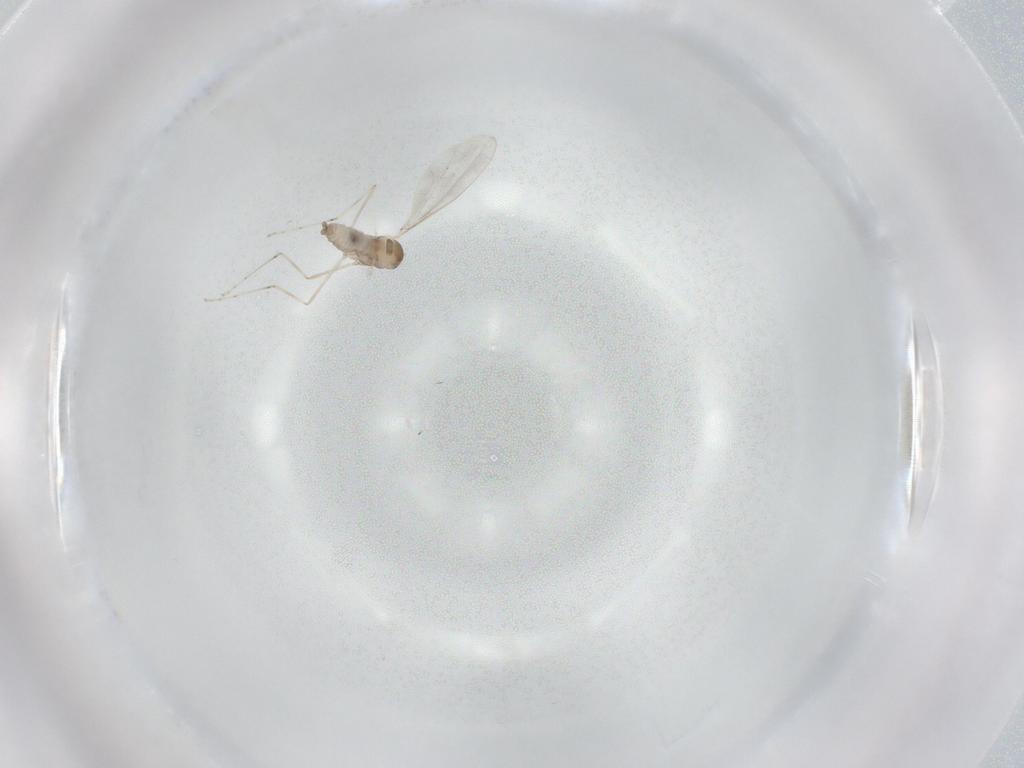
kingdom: Animalia
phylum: Arthropoda
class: Insecta
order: Diptera
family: Cecidomyiidae
